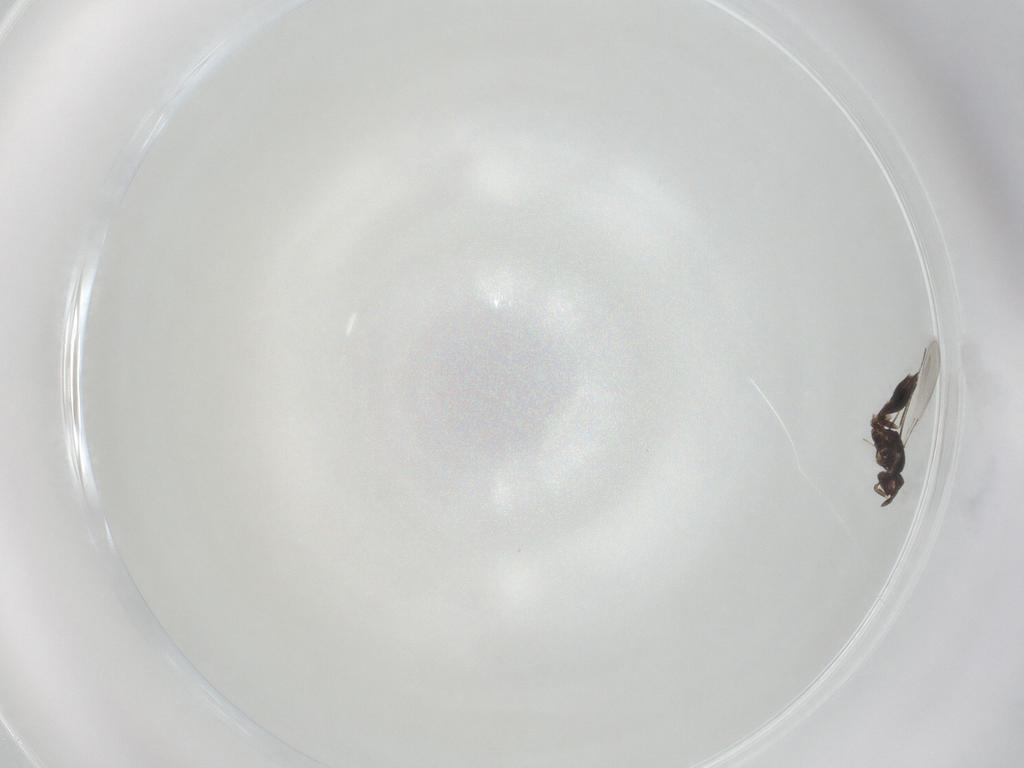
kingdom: Animalia
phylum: Arthropoda
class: Insecta
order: Hymenoptera
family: Mymaridae
